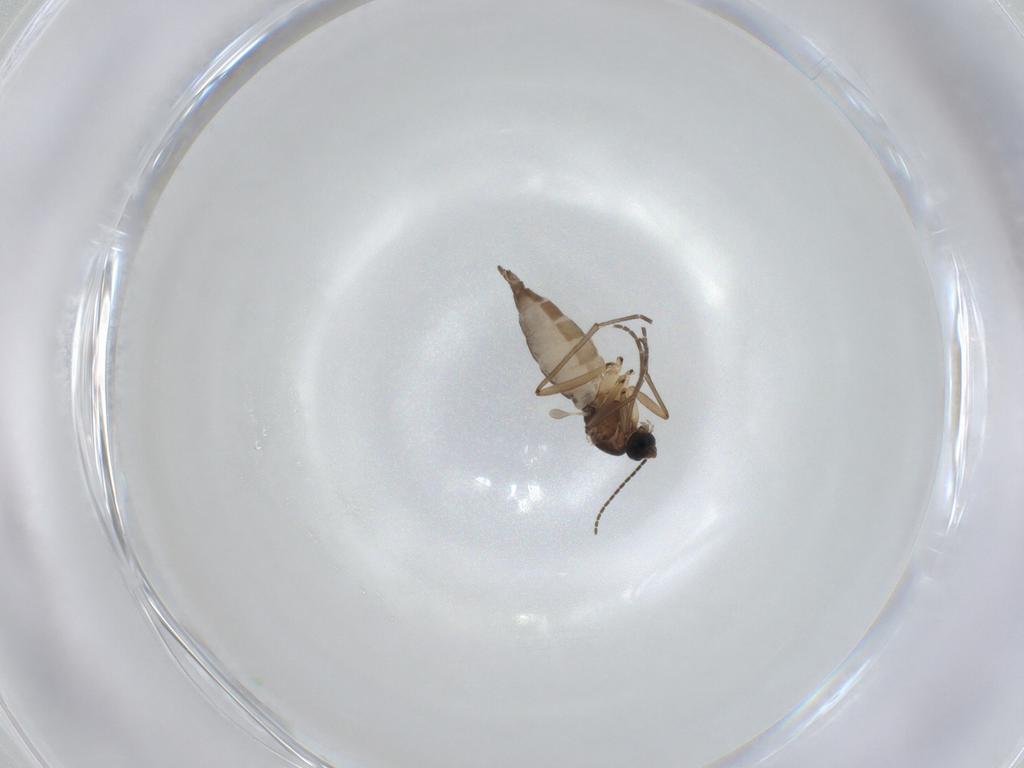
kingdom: Animalia
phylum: Arthropoda
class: Insecta
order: Diptera
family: Sciaridae
